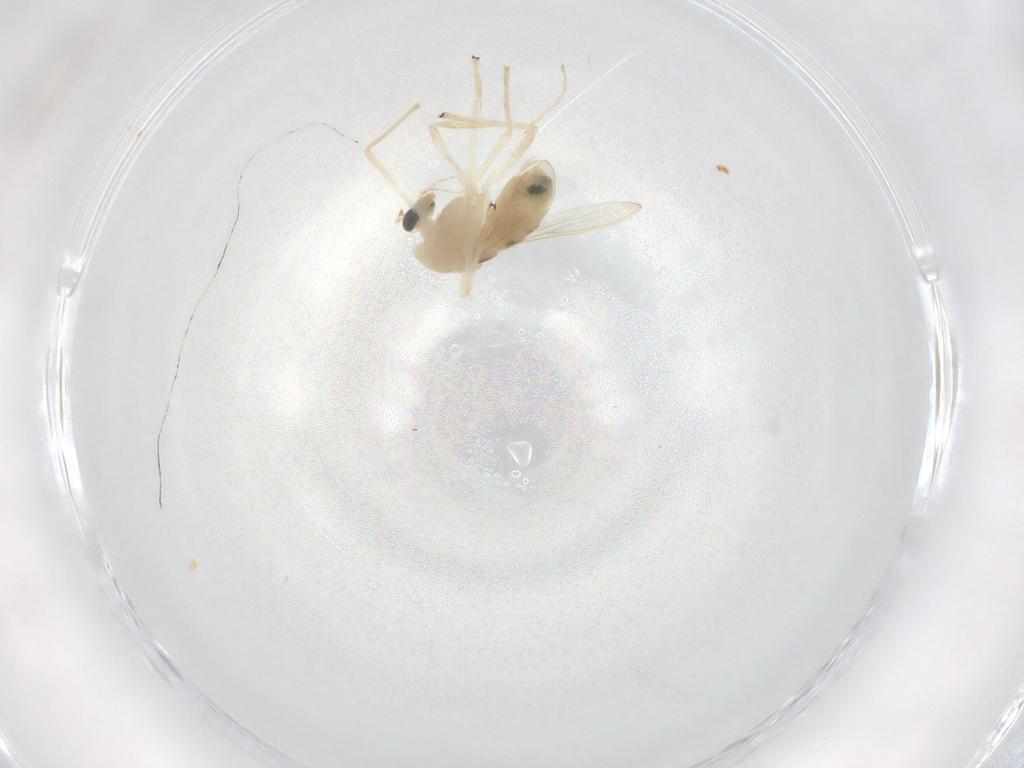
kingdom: Animalia
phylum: Arthropoda
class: Insecta
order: Diptera
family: Chironomidae
